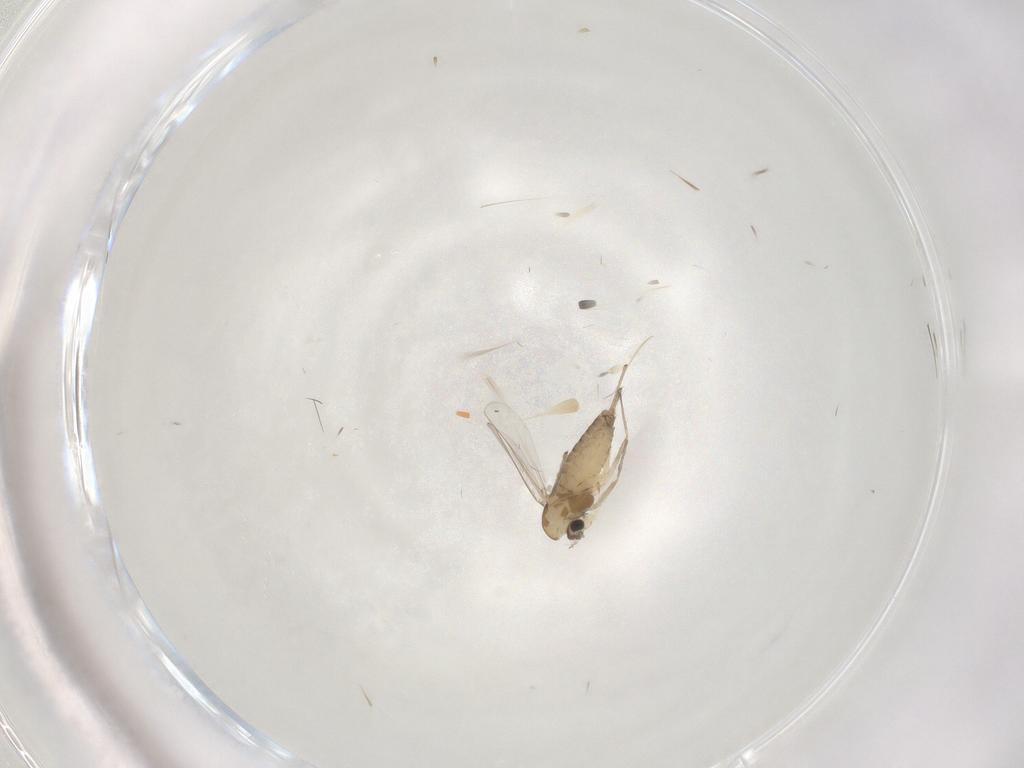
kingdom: Animalia
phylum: Arthropoda
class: Insecta
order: Diptera
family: Chironomidae
